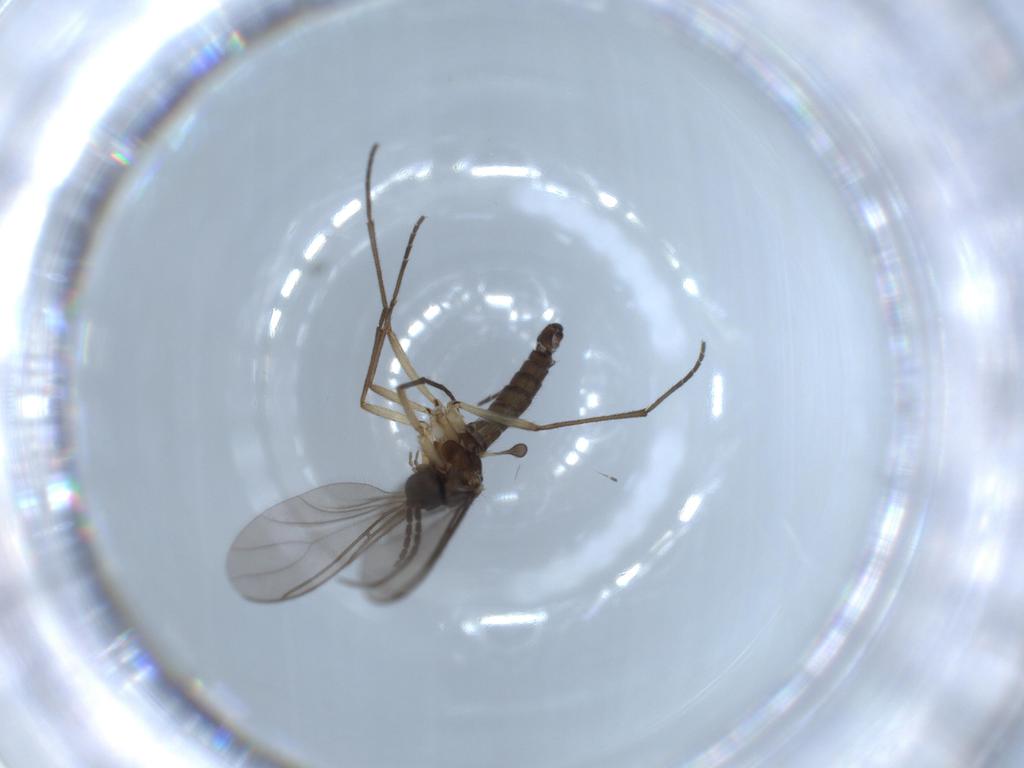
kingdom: Animalia
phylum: Arthropoda
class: Insecta
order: Diptera
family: Sciaridae
